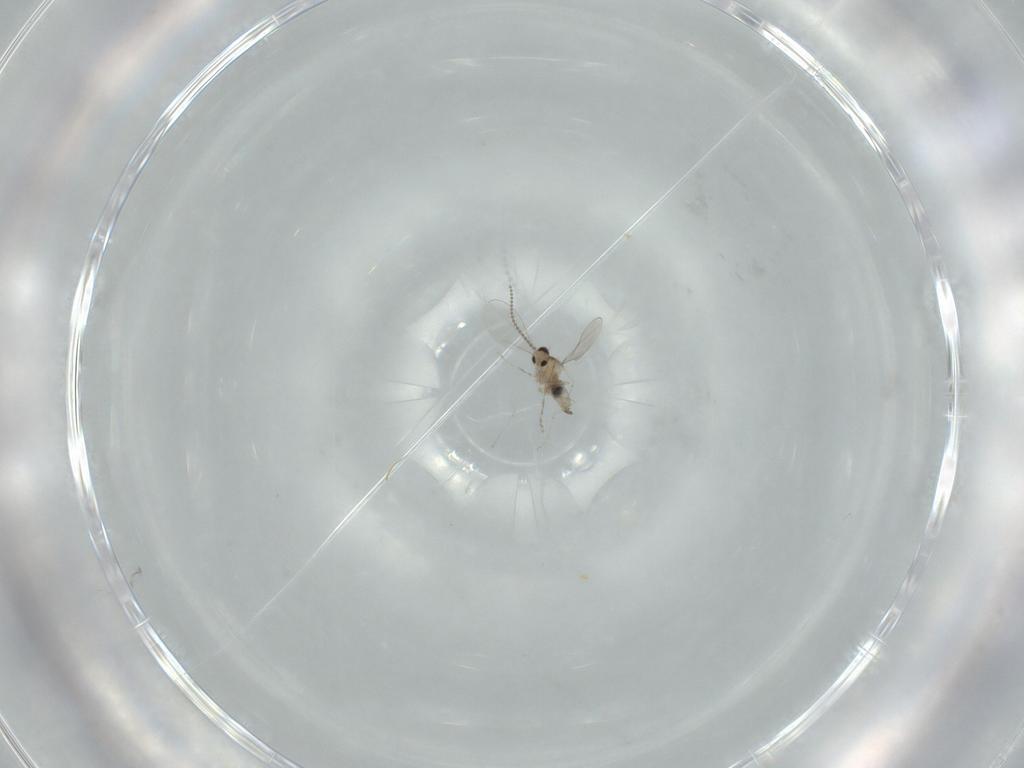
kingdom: Animalia
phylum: Arthropoda
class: Insecta
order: Diptera
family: Cecidomyiidae
